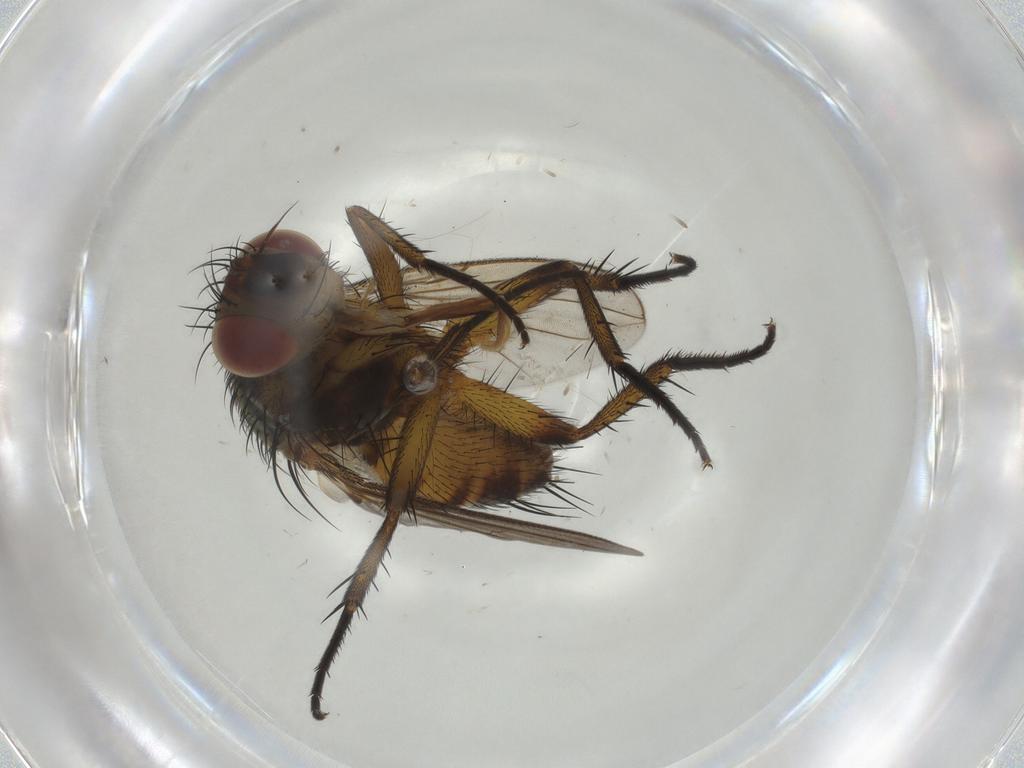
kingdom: Animalia
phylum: Arthropoda
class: Insecta
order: Diptera
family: Tachinidae
